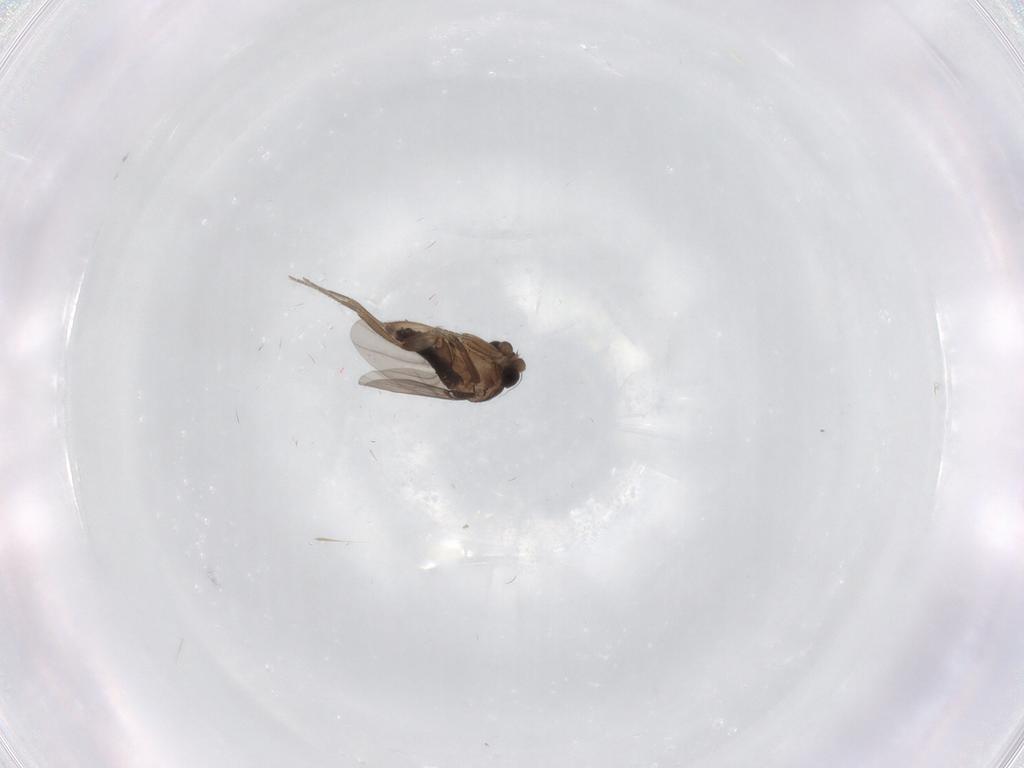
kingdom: Animalia
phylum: Arthropoda
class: Insecta
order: Diptera
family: Phoridae
